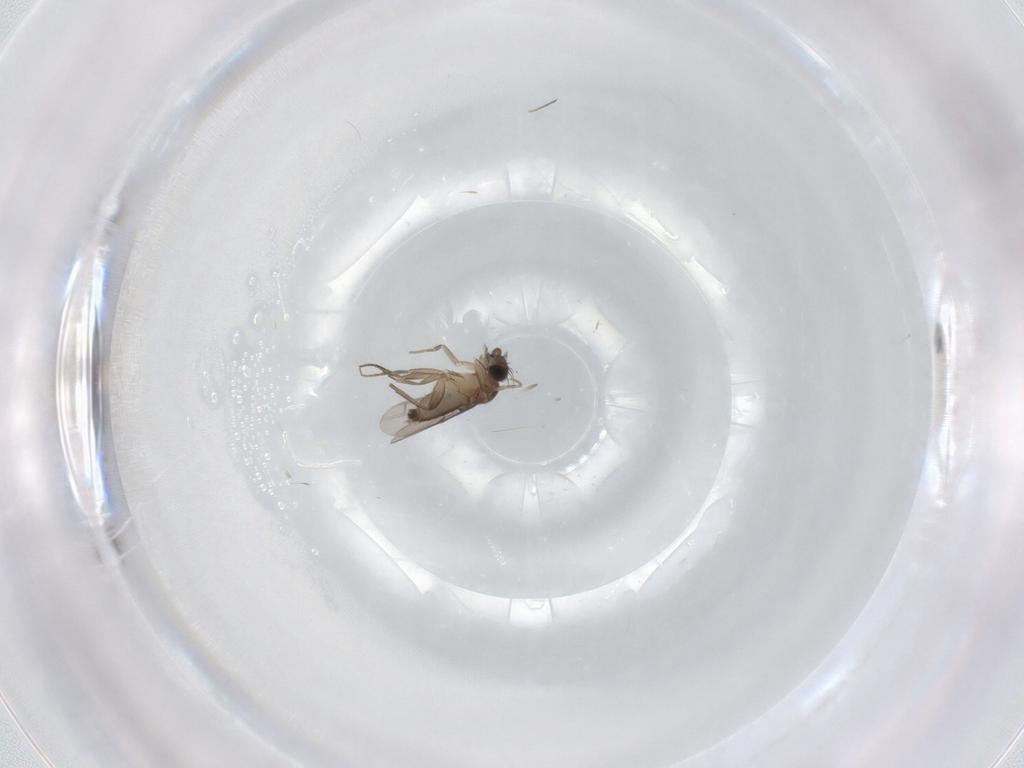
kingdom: Animalia
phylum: Arthropoda
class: Insecta
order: Diptera
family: Phoridae
